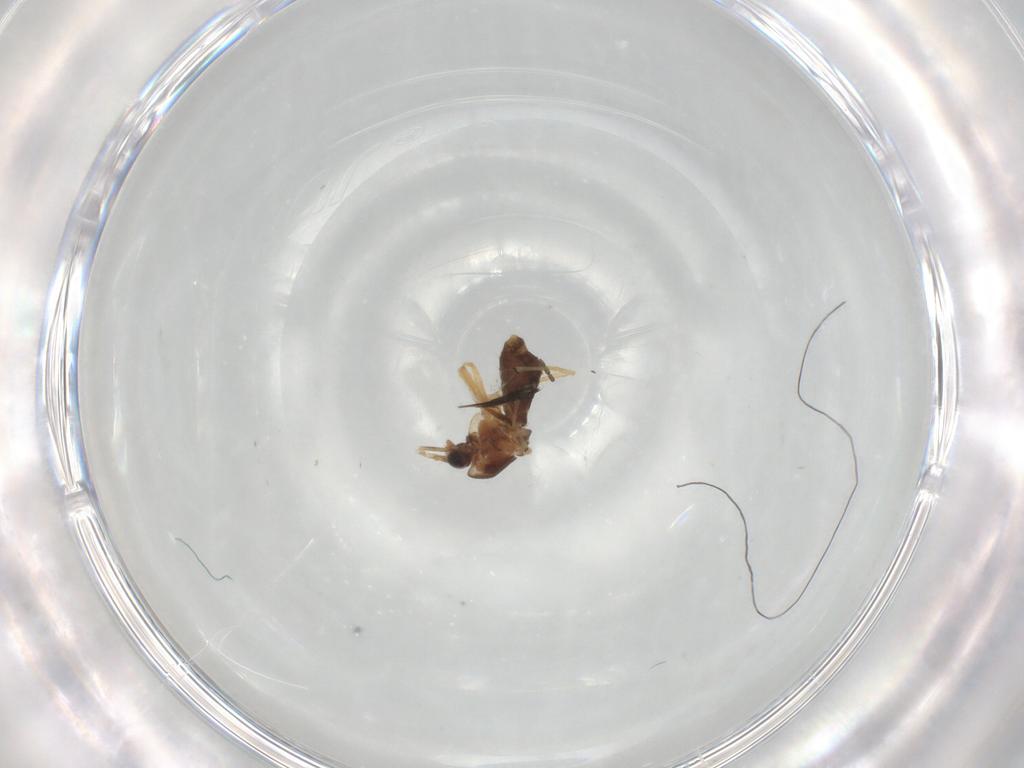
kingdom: Animalia
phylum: Arthropoda
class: Insecta
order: Diptera
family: Chironomidae
